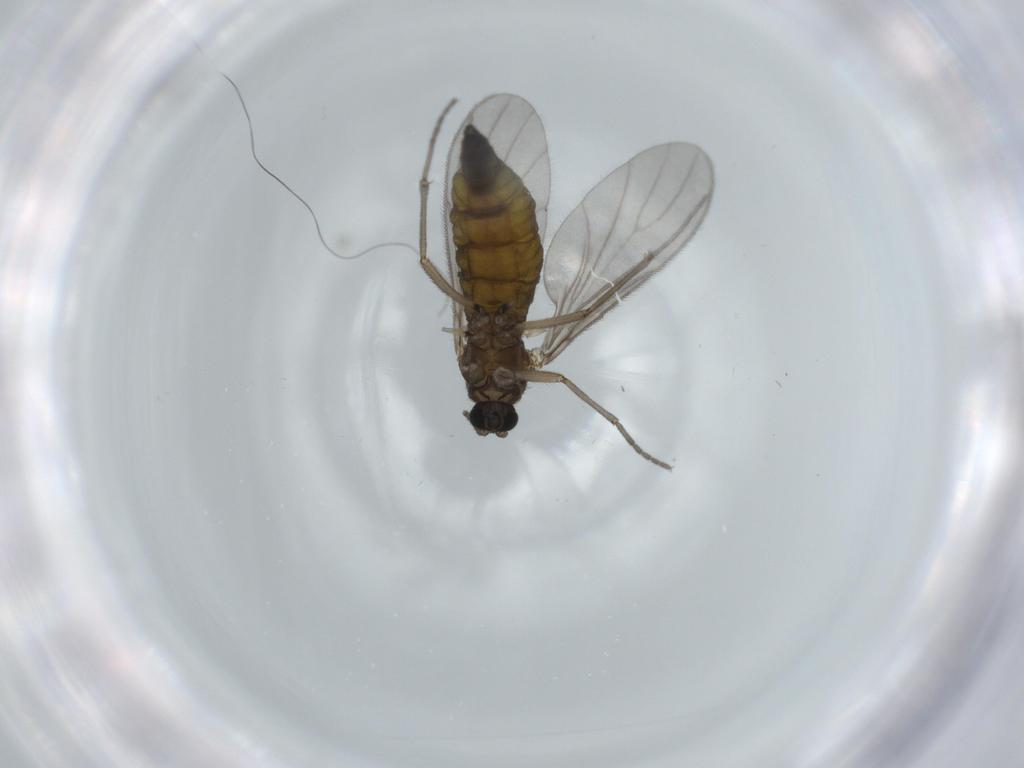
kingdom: Animalia
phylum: Arthropoda
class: Insecta
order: Diptera
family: Sciaridae
